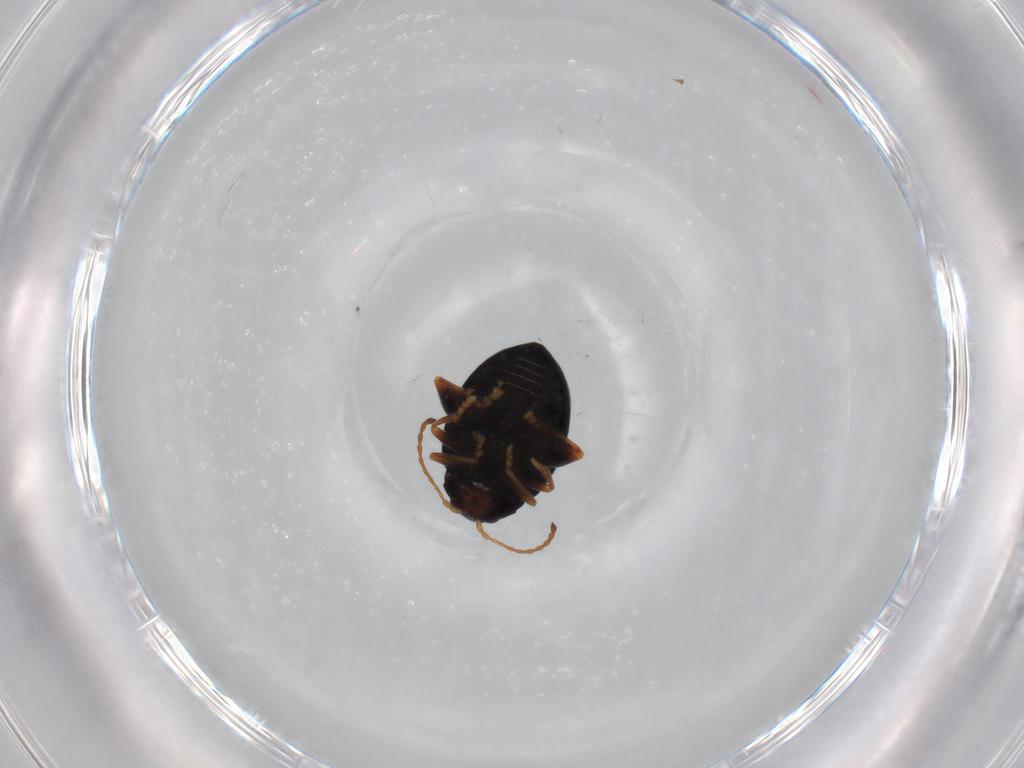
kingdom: Animalia
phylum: Arthropoda
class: Insecta
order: Coleoptera
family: Chrysomelidae
